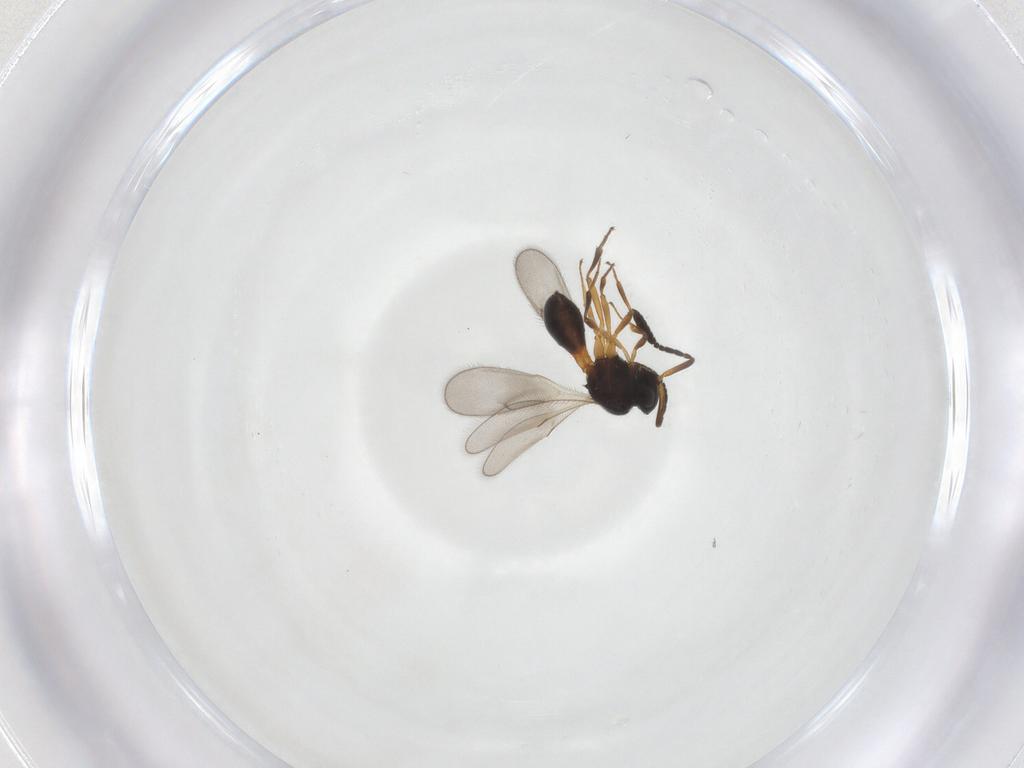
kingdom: Animalia
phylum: Arthropoda
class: Insecta
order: Hymenoptera
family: Scelionidae
